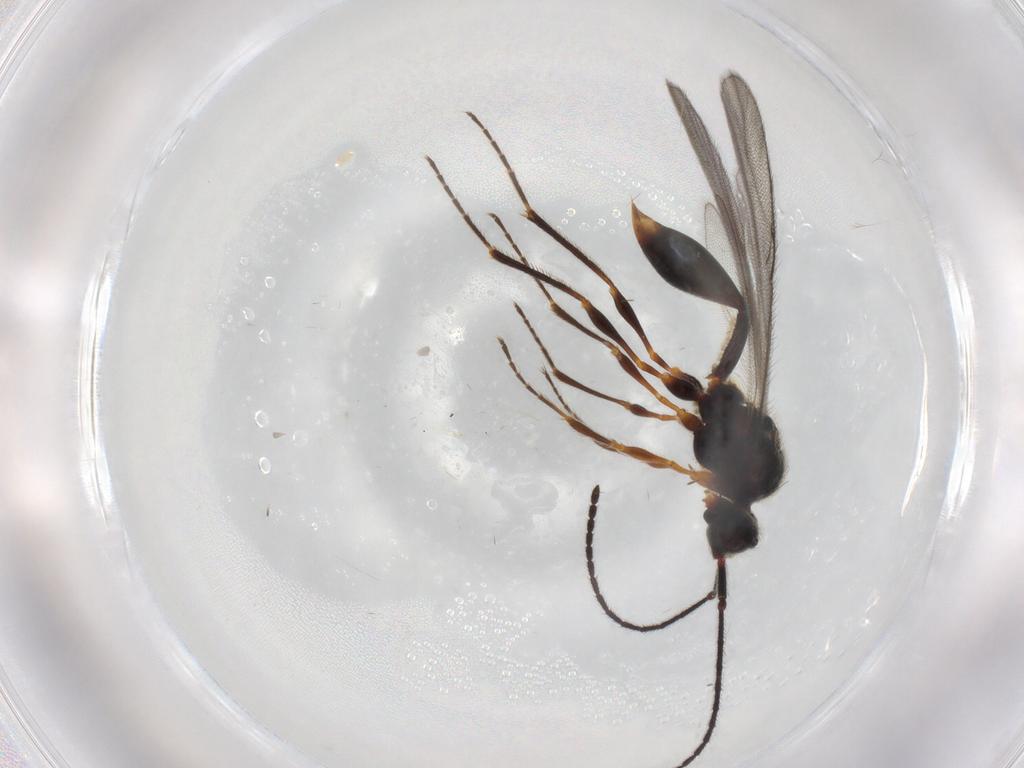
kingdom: Animalia
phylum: Arthropoda
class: Insecta
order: Hymenoptera
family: Diapriidae
